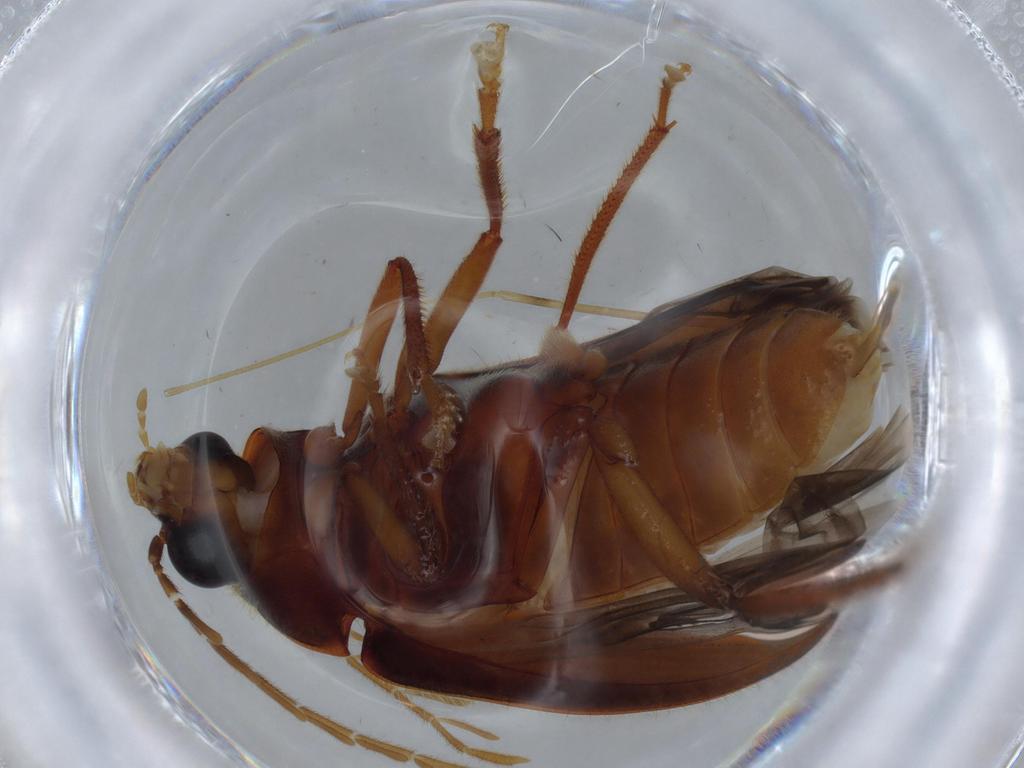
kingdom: Animalia
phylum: Arthropoda
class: Insecta
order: Coleoptera
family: Ptilodactylidae
